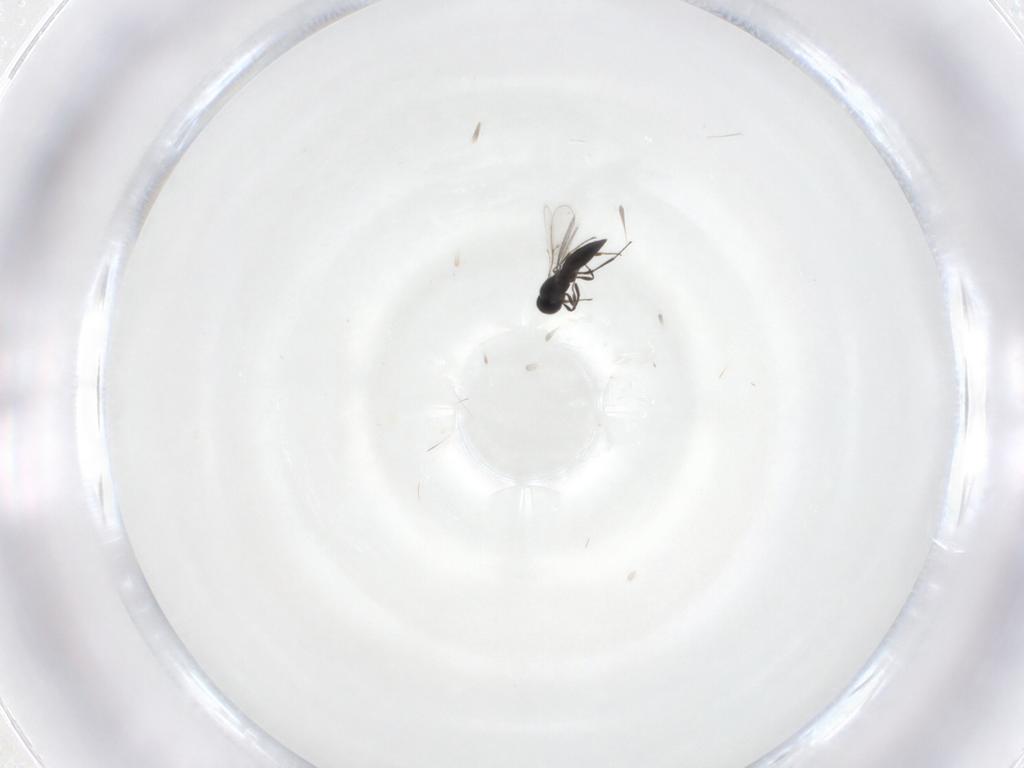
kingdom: Animalia
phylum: Arthropoda
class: Insecta
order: Hymenoptera
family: Scelionidae
